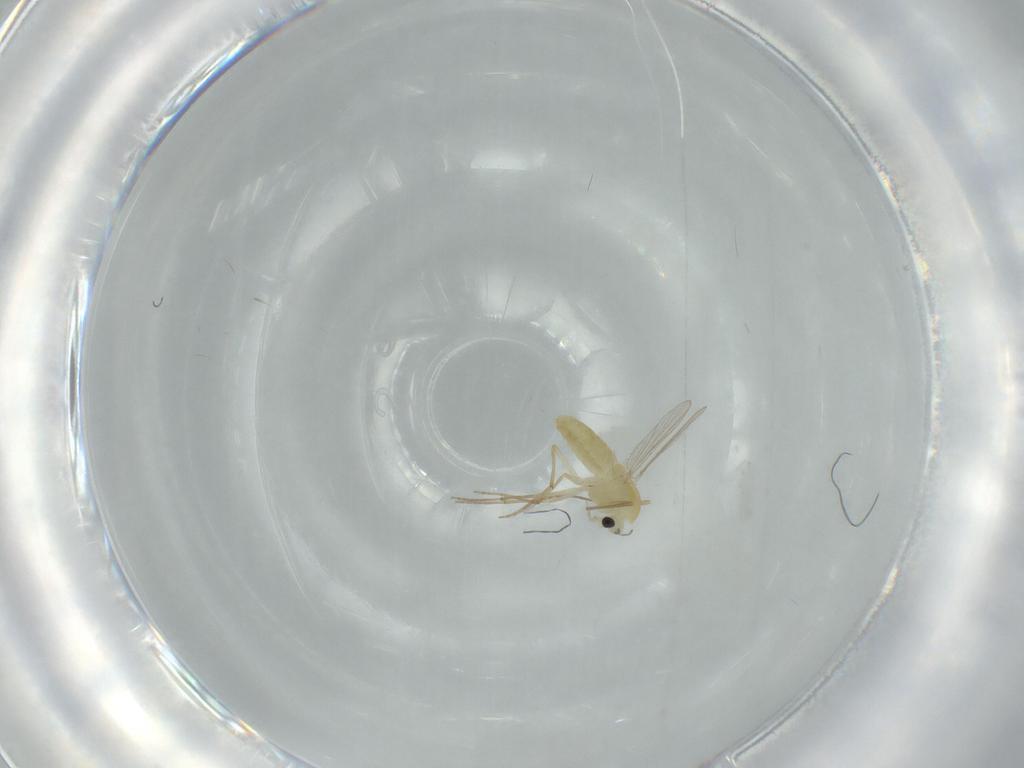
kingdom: Animalia
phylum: Arthropoda
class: Insecta
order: Diptera
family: Chironomidae
